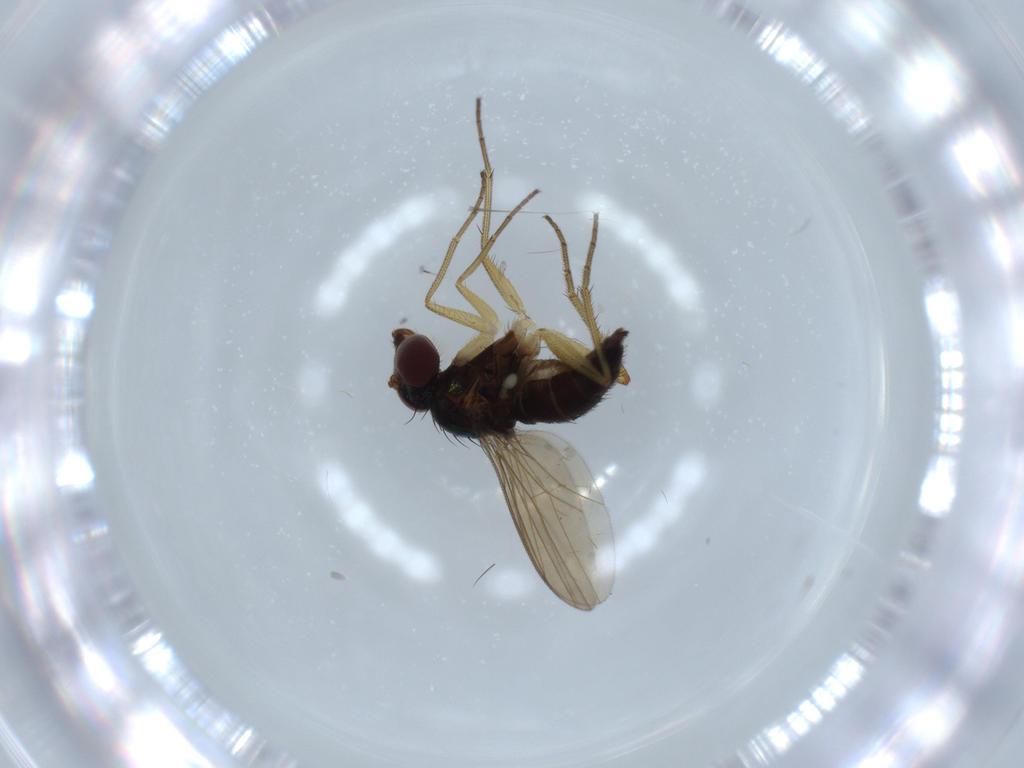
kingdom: Animalia
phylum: Arthropoda
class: Insecta
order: Diptera
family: Dolichopodidae
